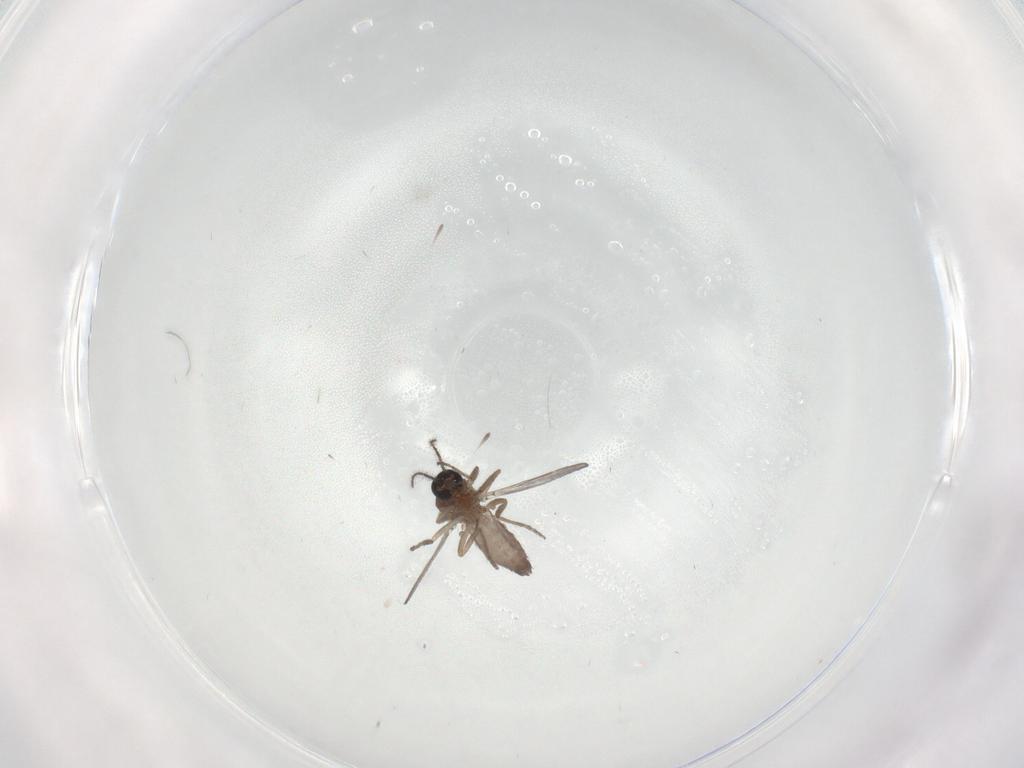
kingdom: Animalia
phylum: Arthropoda
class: Insecta
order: Diptera
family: Ceratopogonidae
